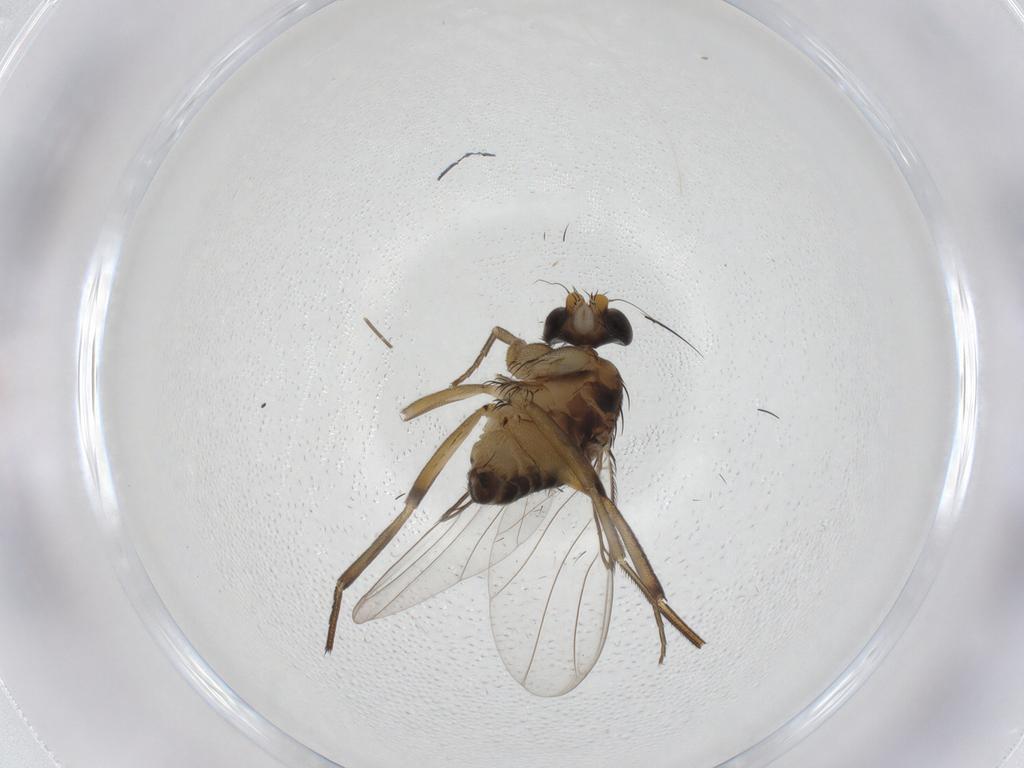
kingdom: Animalia
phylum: Arthropoda
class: Insecta
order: Diptera
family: Phoridae
